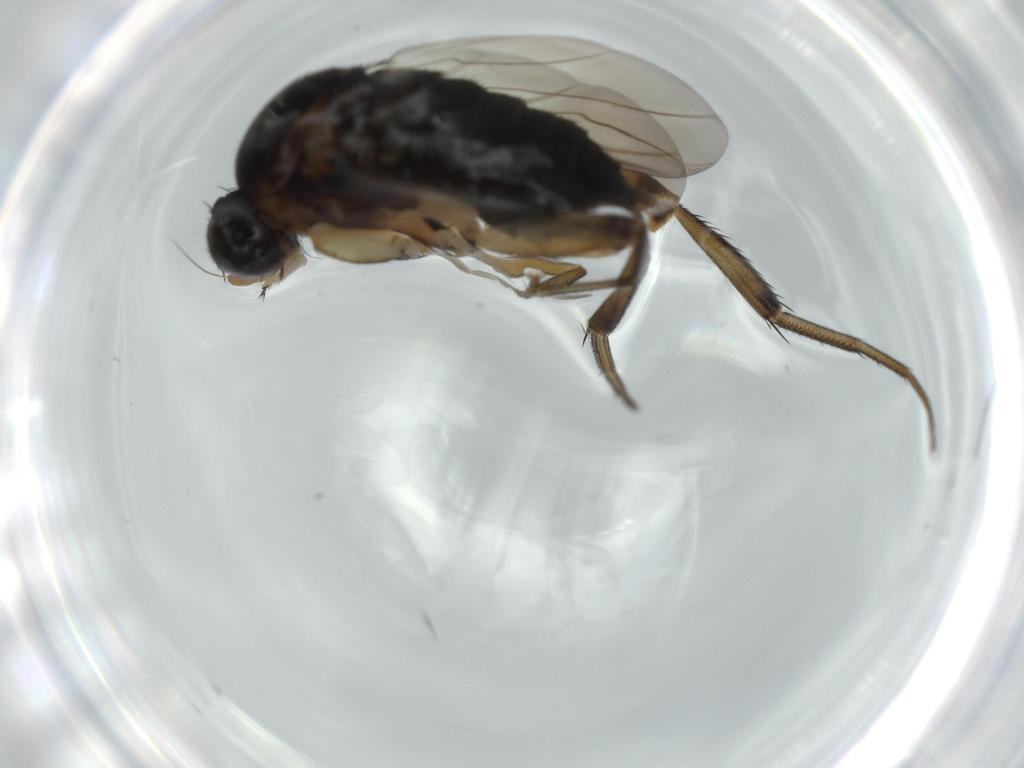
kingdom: Animalia
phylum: Arthropoda
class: Insecta
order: Diptera
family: Phoridae
